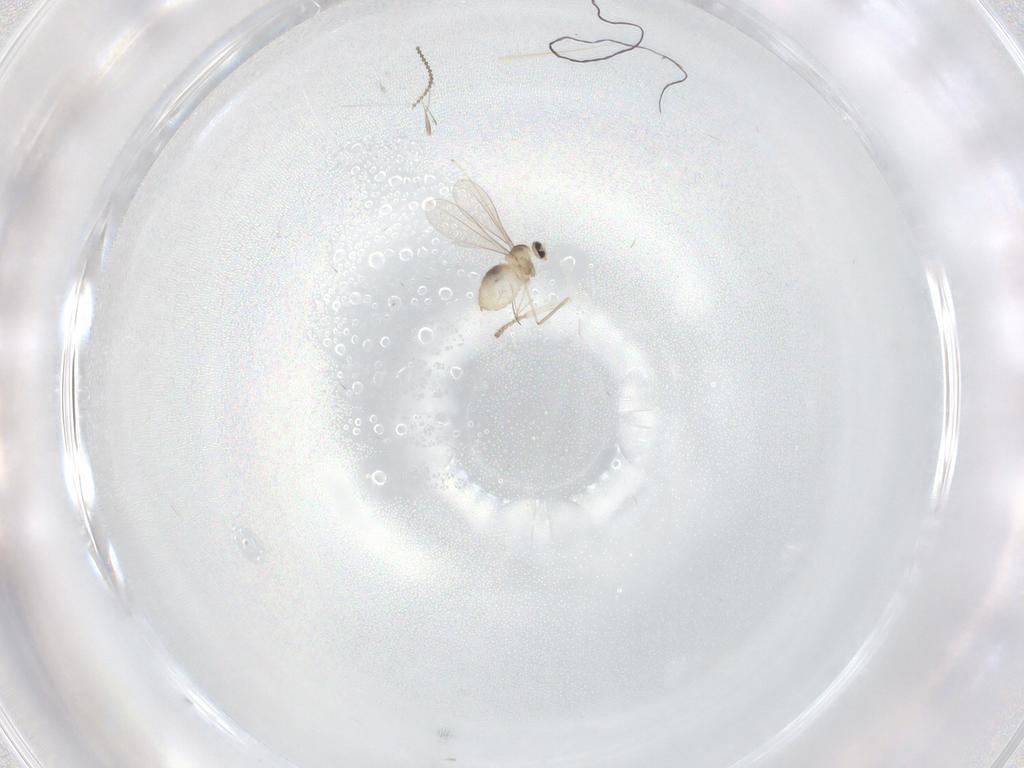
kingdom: Animalia
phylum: Arthropoda
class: Insecta
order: Diptera
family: Cecidomyiidae
